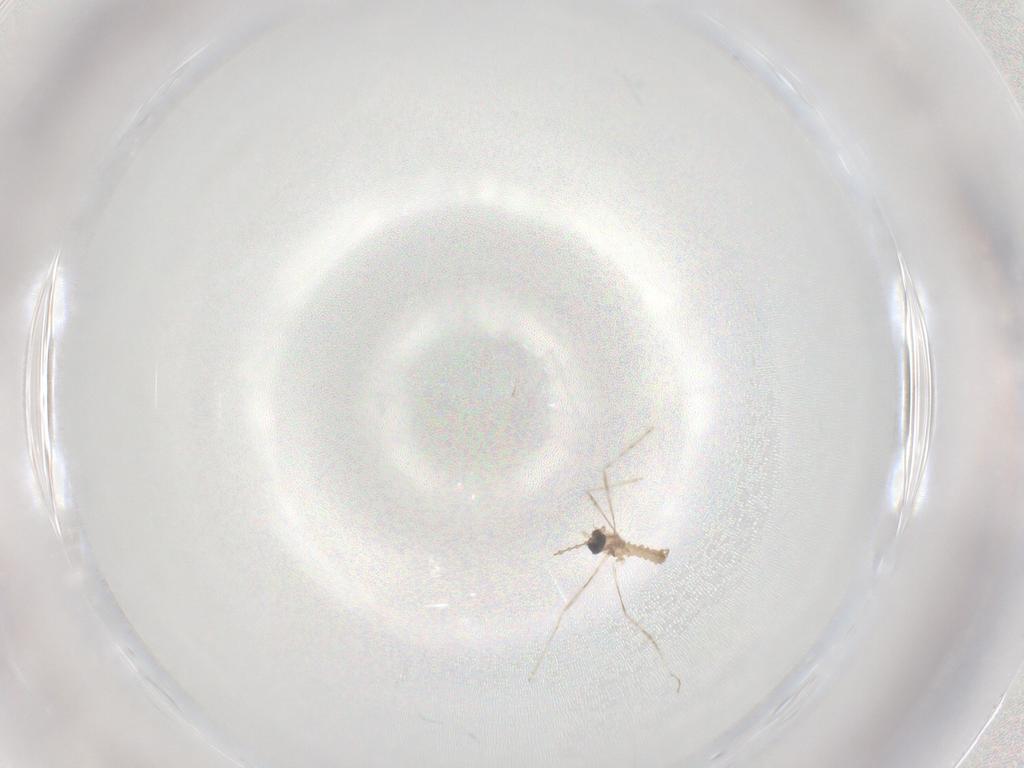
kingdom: Animalia
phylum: Arthropoda
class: Insecta
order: Diptera
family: Cecidomyiidae
